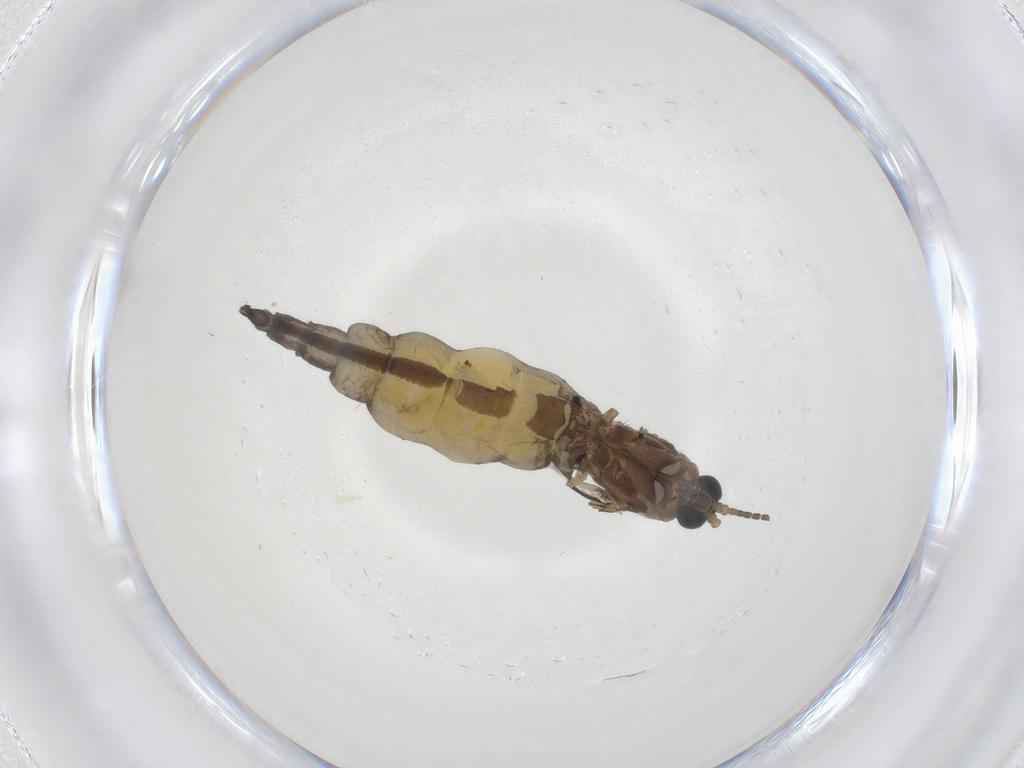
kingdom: Animalia
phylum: Arthropoda
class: Insecta
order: Diptera
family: Sciaridae
